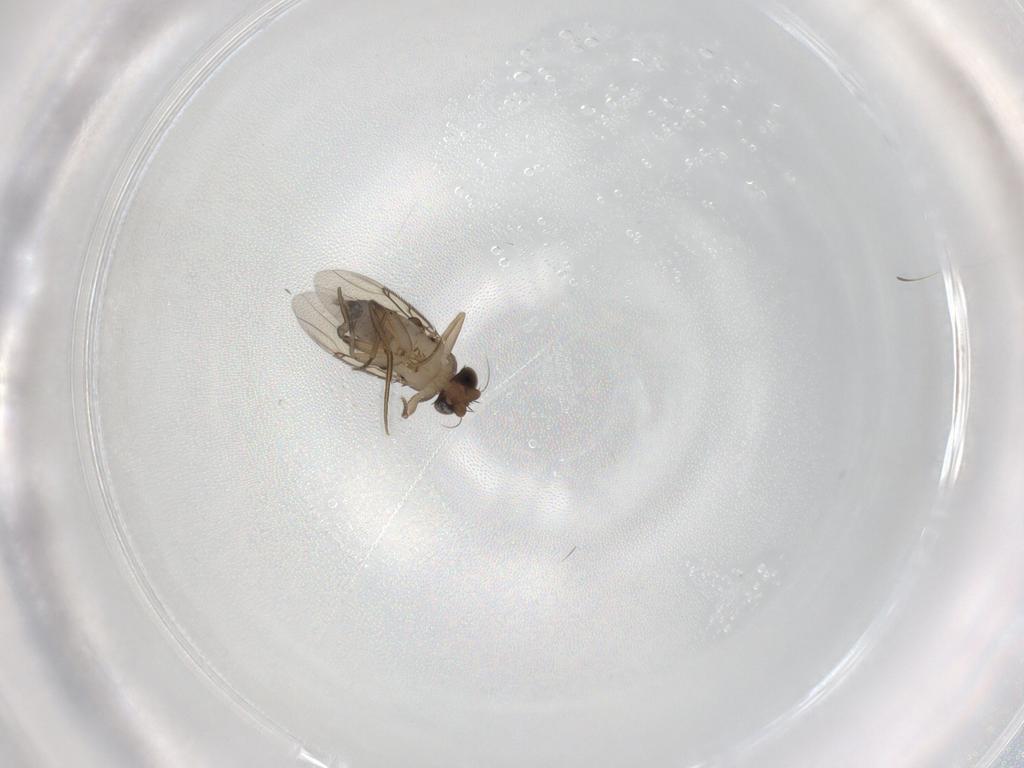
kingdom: Animalia
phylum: Arthropoda
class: Insecta
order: Diptera
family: Phoridae
